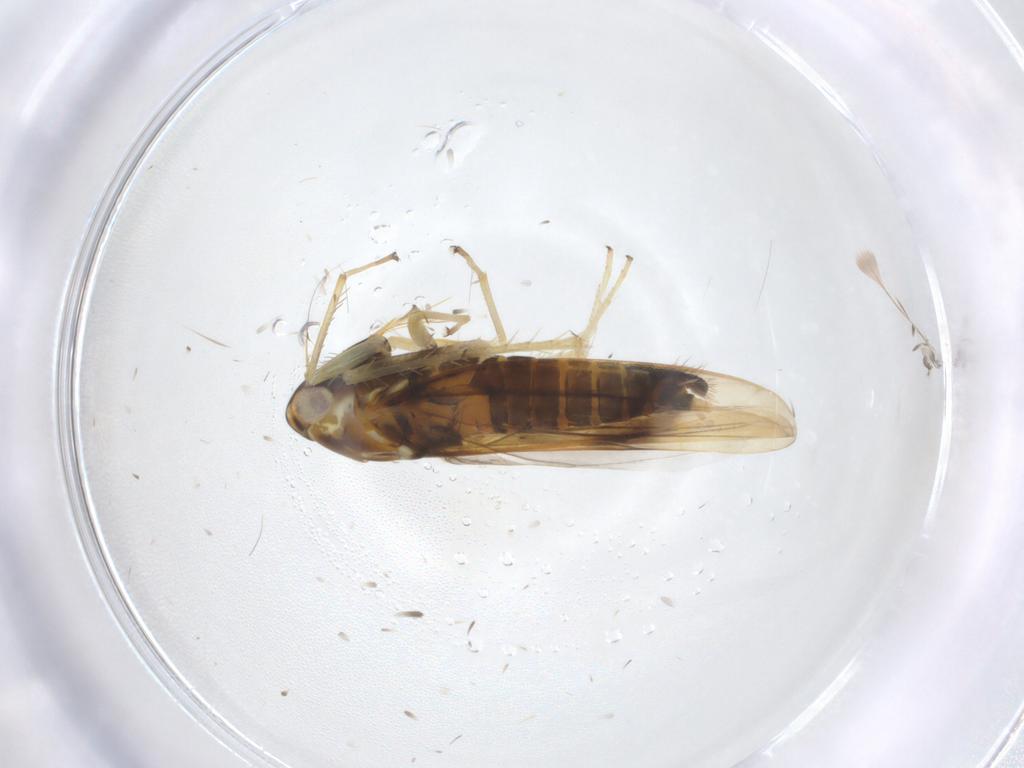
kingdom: Animalia
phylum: Arthropoda
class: Insecta
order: Hemiptera
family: Cicadellidae
